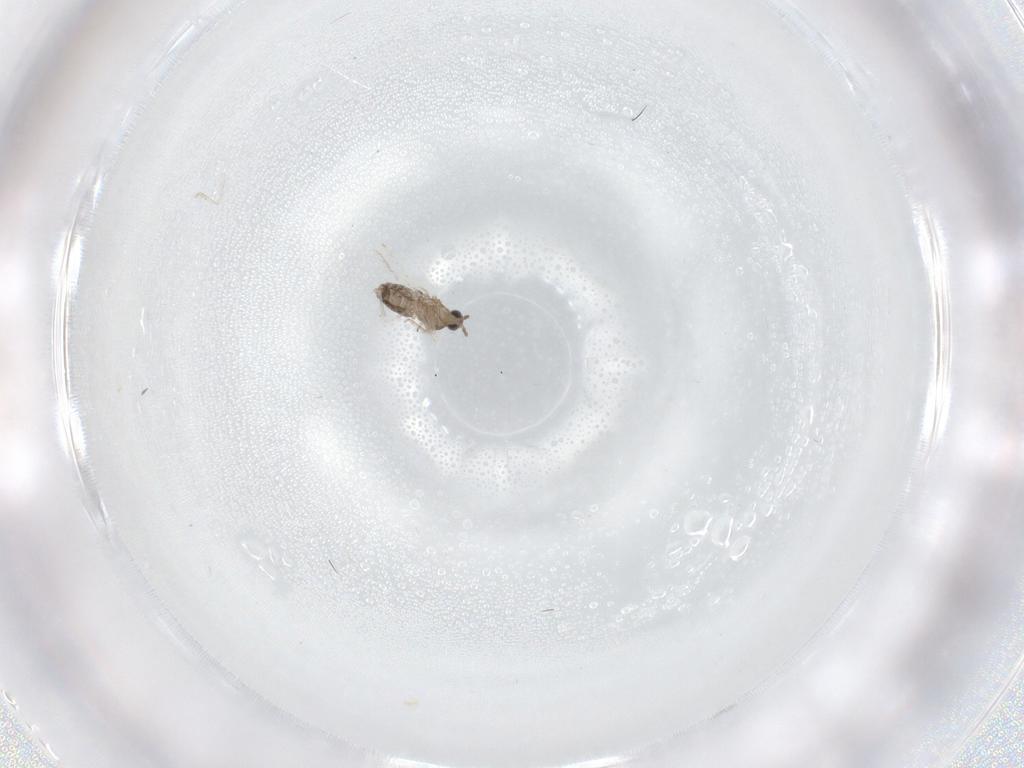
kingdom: Animalia
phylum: Arthropoda
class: Insecta
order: Diptera
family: Cecidomyiidae
